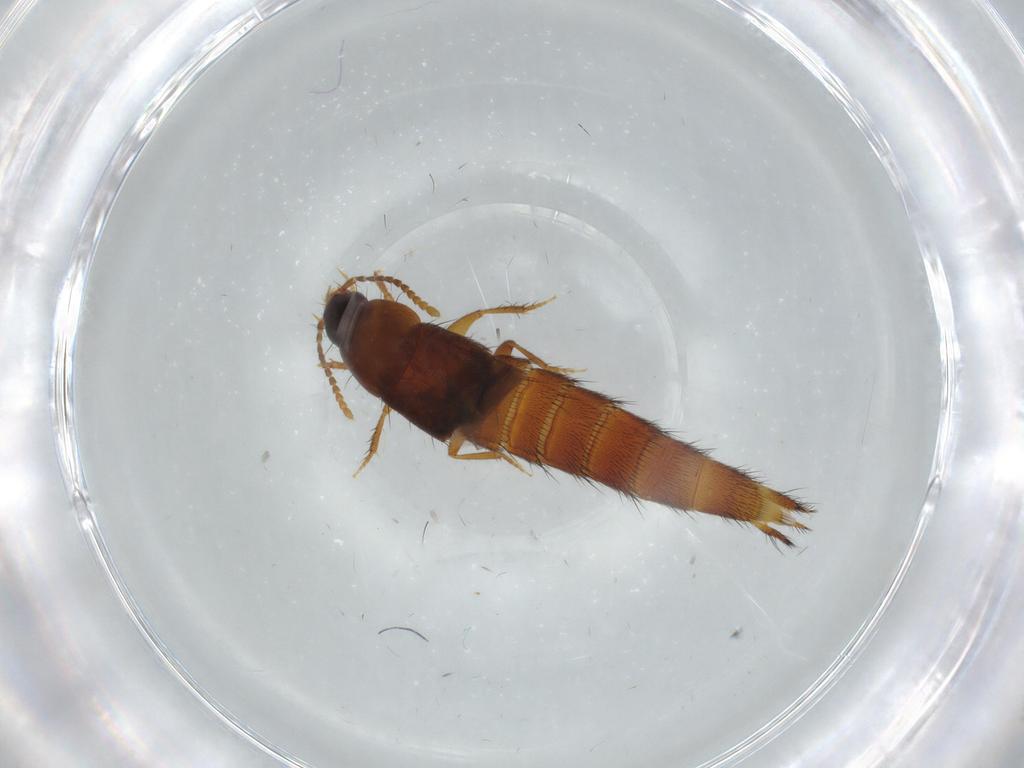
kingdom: Animalia
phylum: Arthropoda
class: Insecta
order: Coleoptera
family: Staphylinidae
